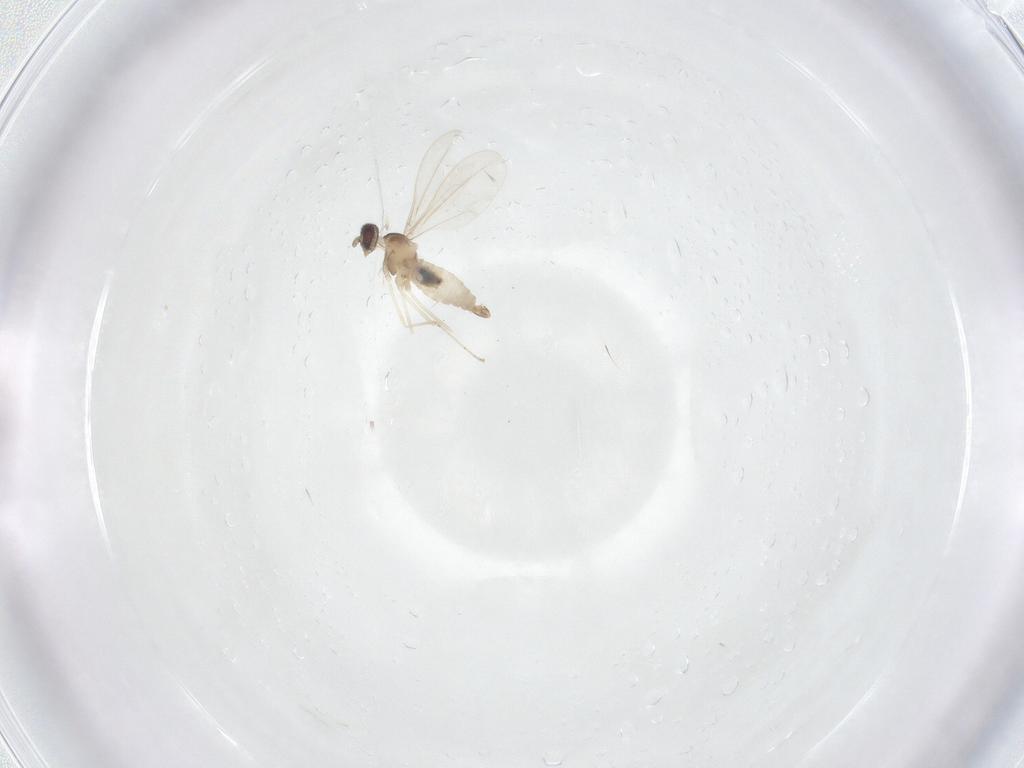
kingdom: Animalia
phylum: Arthropoda
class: Insecta
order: Diptera
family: Cecidomyiidae
